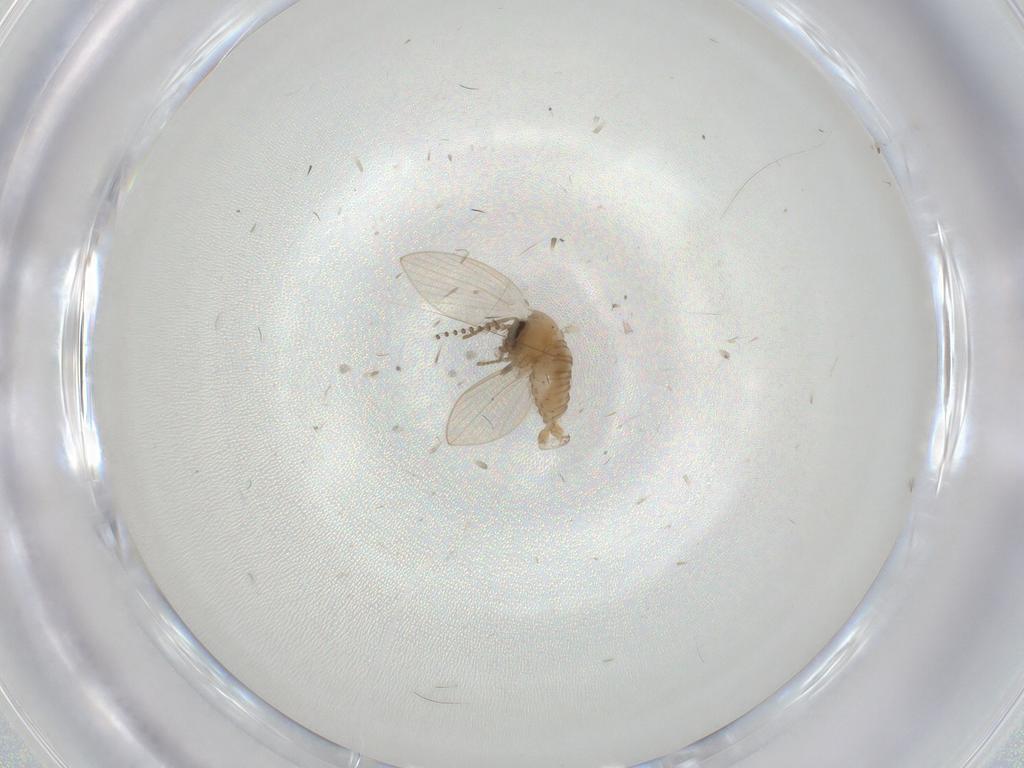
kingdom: Animalia
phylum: Arthropoda
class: Insecta
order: Diptera
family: Psychodidae
